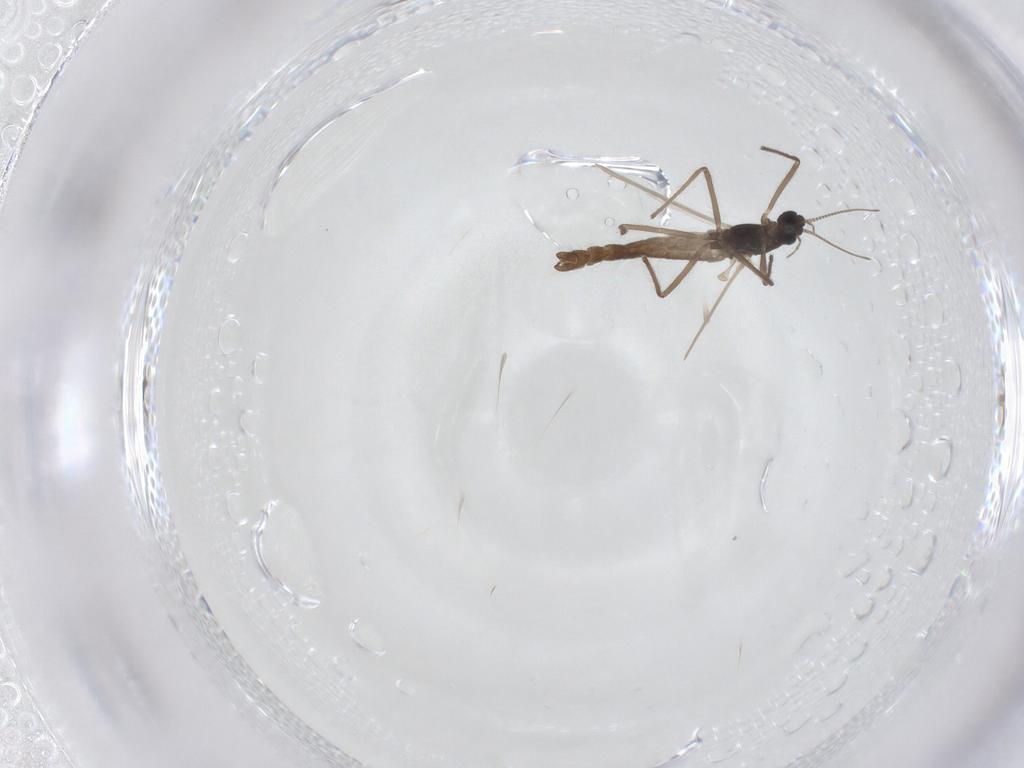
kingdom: Animalia
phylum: Arthropoda
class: Insecta
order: Diptera
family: Chironomidae
